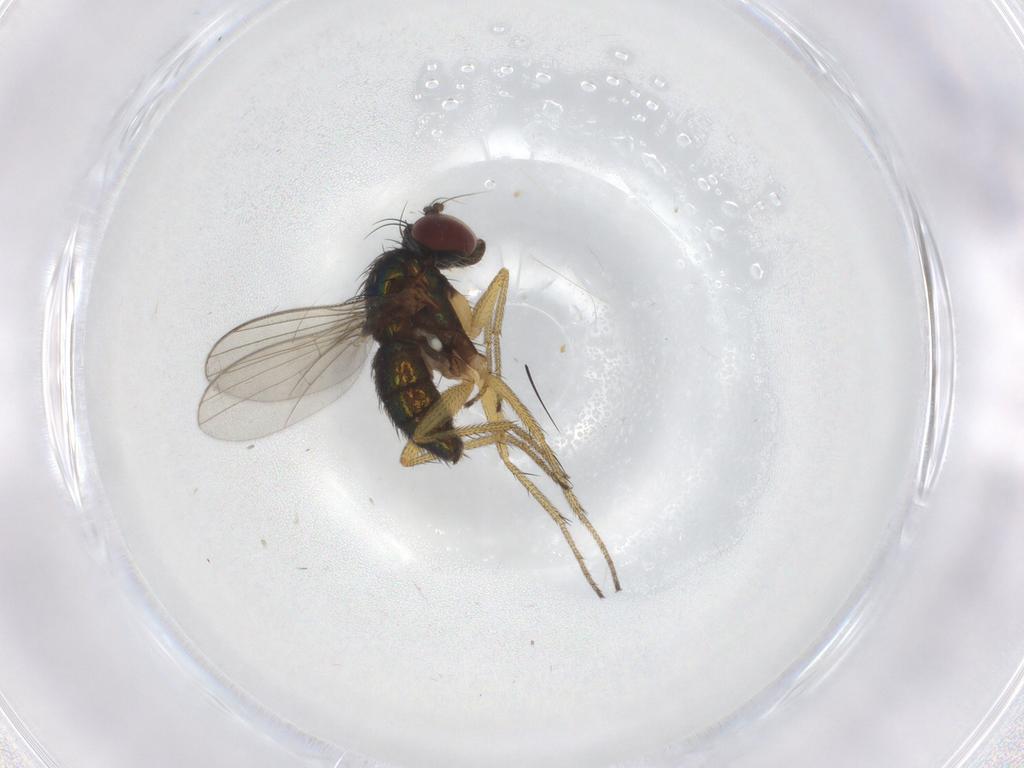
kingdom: Animalia
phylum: Arthropoda
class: Insecta
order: Diptera
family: Dolichopodidae
